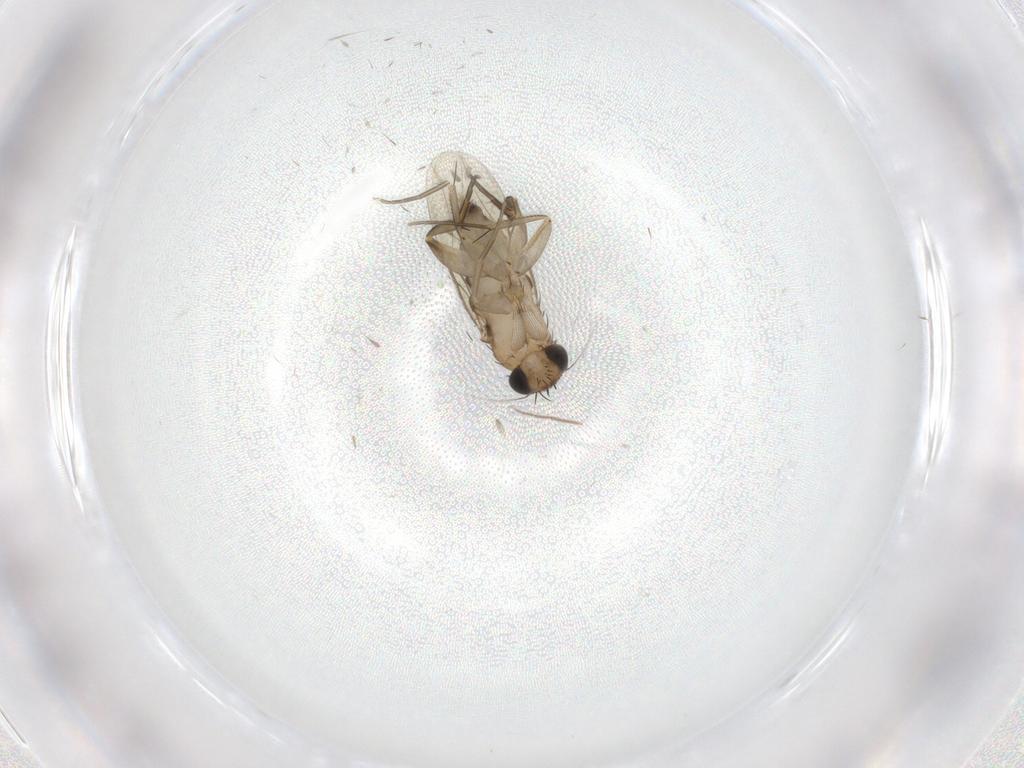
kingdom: Animalia
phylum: Arthropoda
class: Insecta
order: Diptera
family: Phoridae
